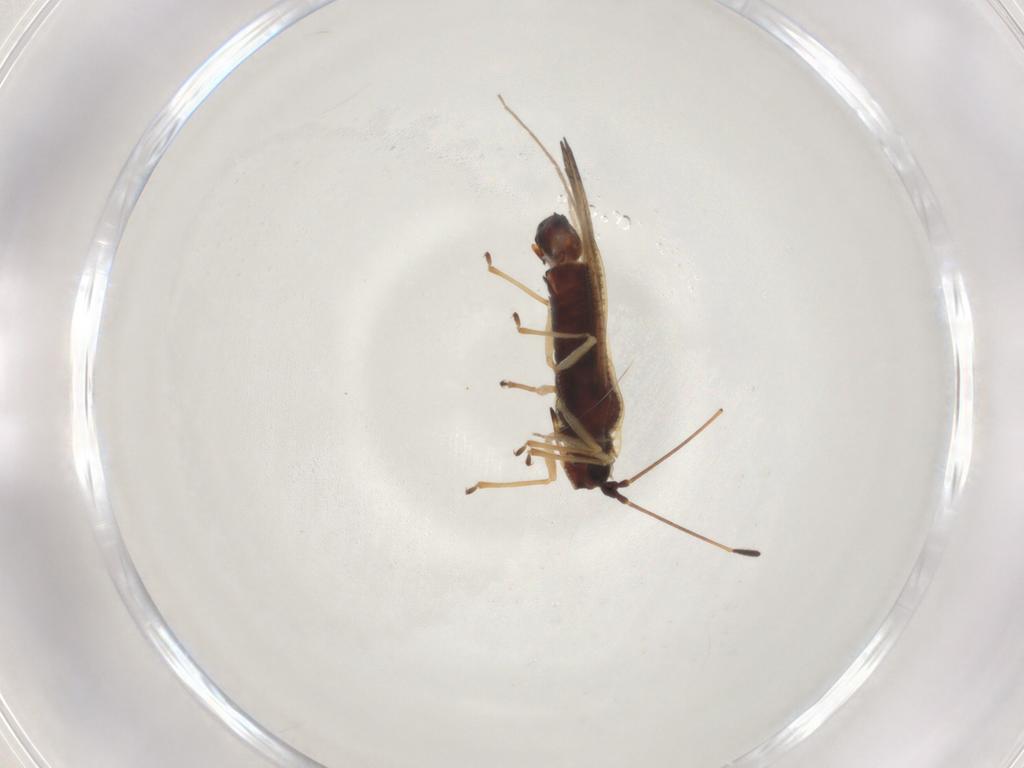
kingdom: Animalia
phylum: Arthropoda
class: Insecta
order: Hemiptera
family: Tingidae
